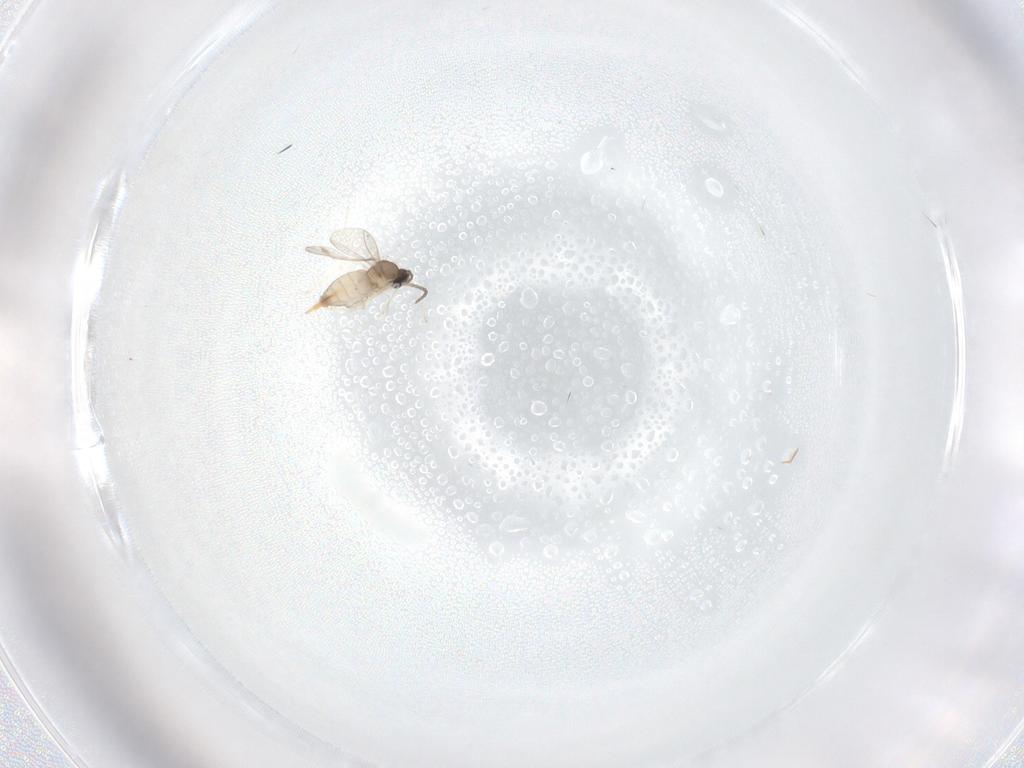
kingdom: Animalia
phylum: Arthropoda
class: Insecta
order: Diptera
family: Cecidomyiidae
